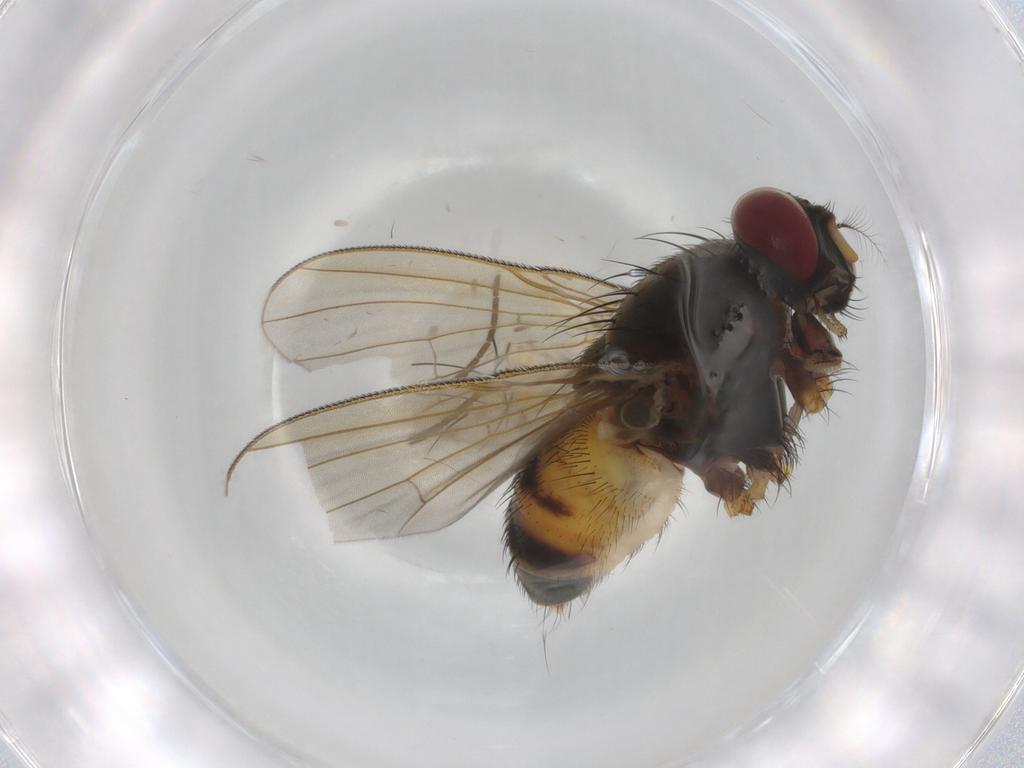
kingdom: Animalia
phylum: Arthropoda
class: Insecta
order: Diptera
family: Muscidae
